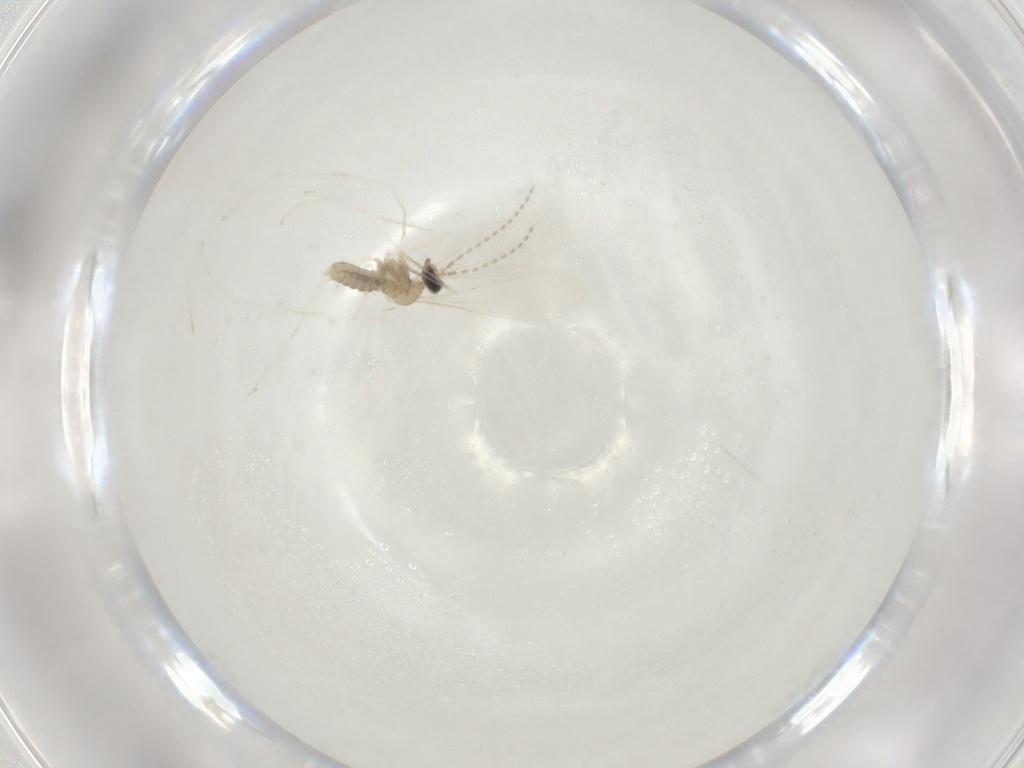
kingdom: Animalia
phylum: Arthropoda
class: Insecta
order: Diptera
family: Cecidomyiidae
